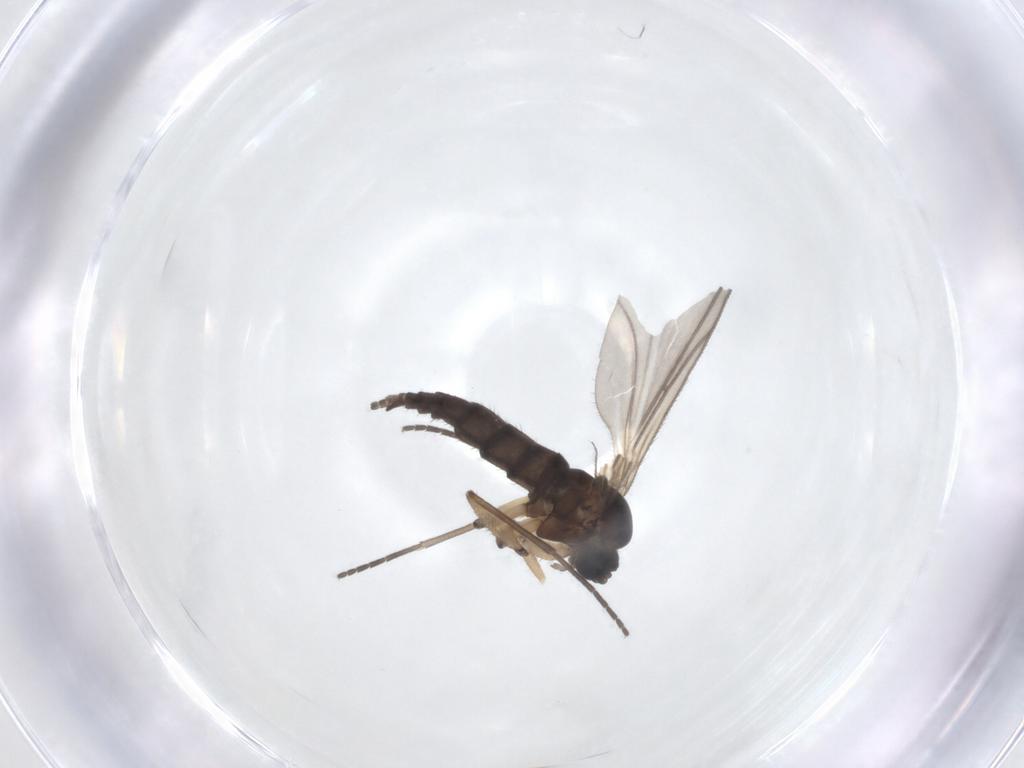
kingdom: Animalia
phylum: Arthropoda
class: Insecta
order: Diptera
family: Sciaridae
